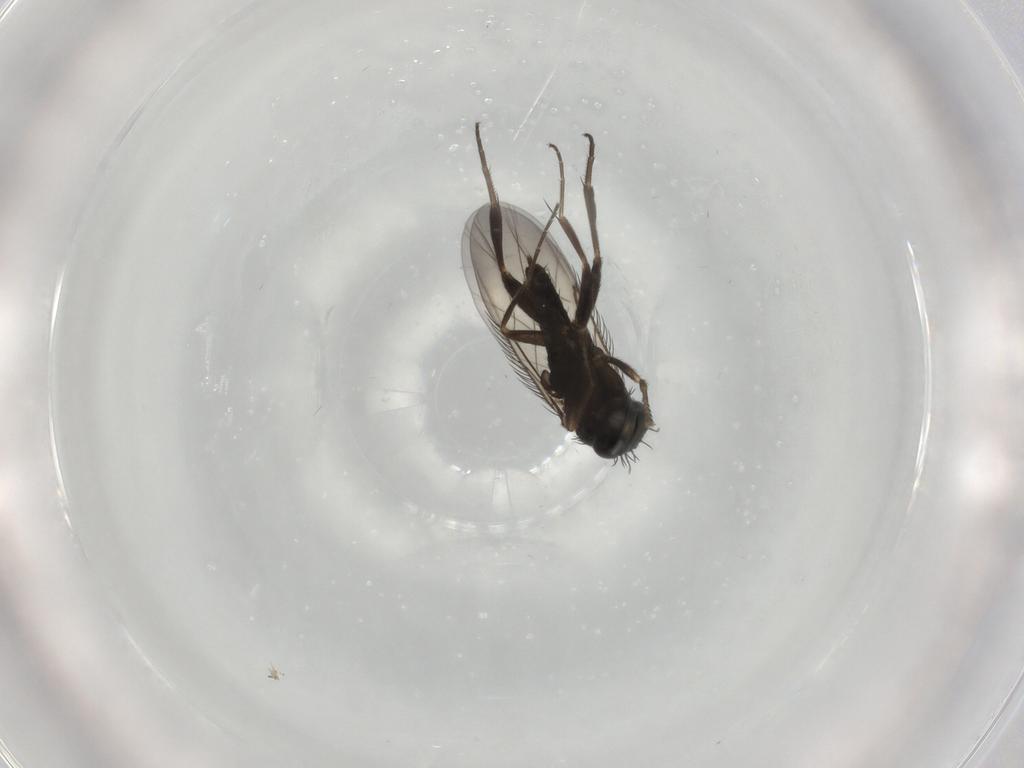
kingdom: Animalia
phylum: Arthropoda
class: Insecta
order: Diptera
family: Phoridae
